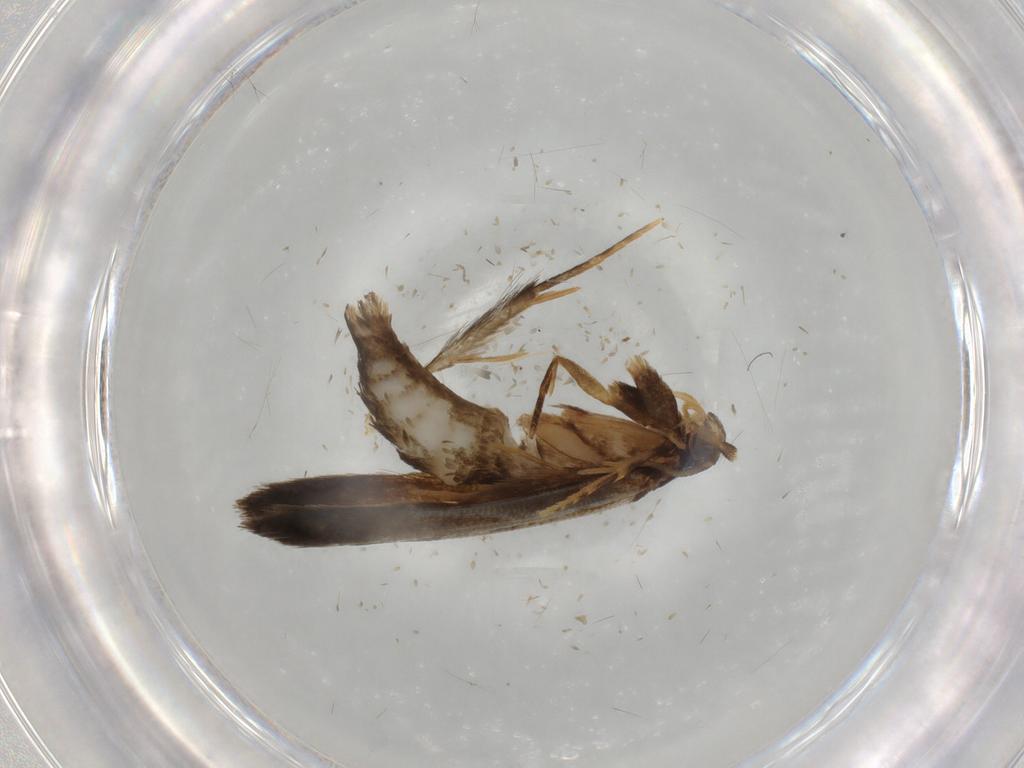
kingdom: Animalia
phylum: Arthropoda
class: Insecta
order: Lepidoptera
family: Tineidae
